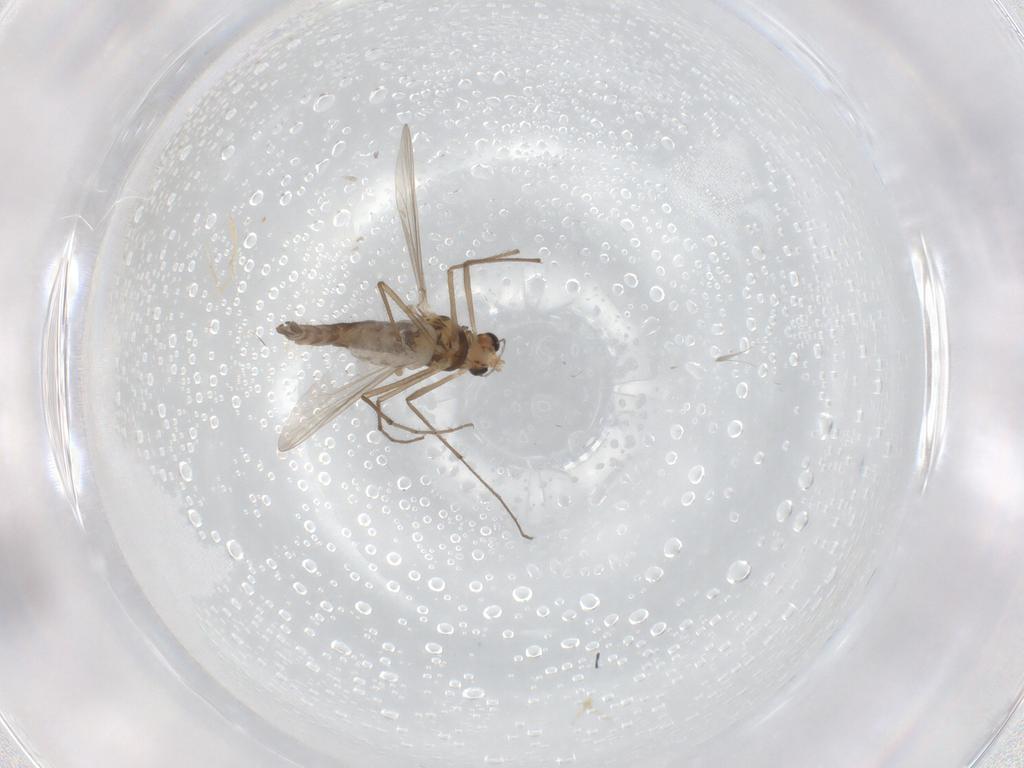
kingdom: Animalia
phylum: Arthropoda
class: Insecta
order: Diptera
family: Chironomidae
